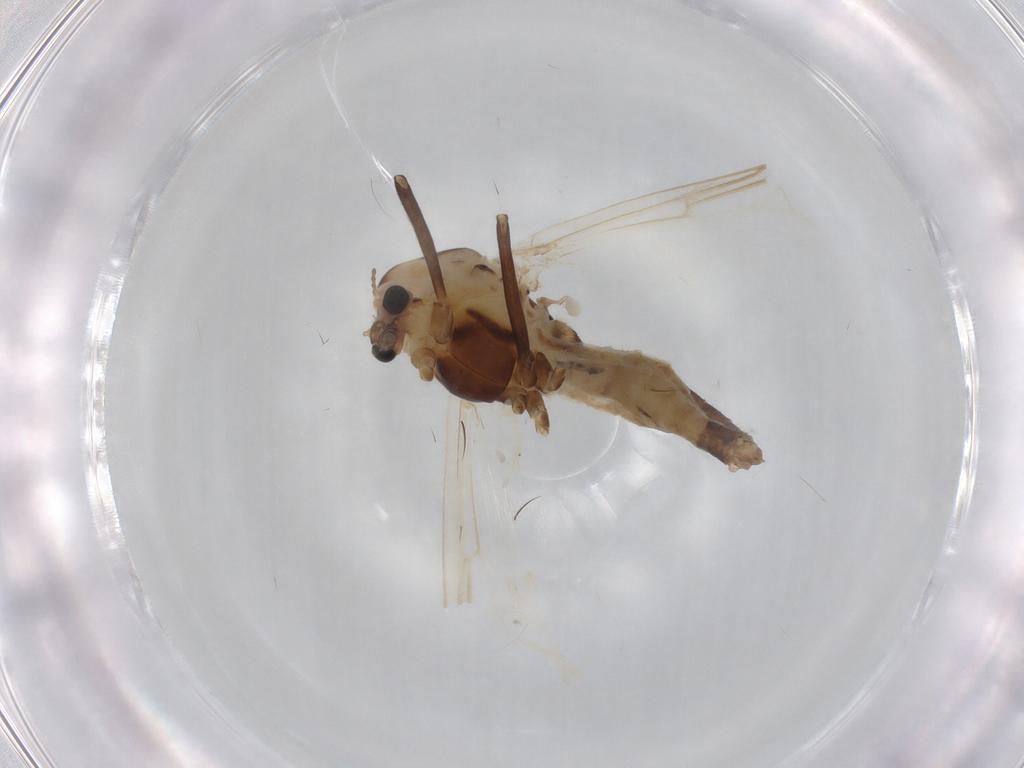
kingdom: Animalia
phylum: Arthropoda
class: Insecta
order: Diptera
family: Chironomidae
